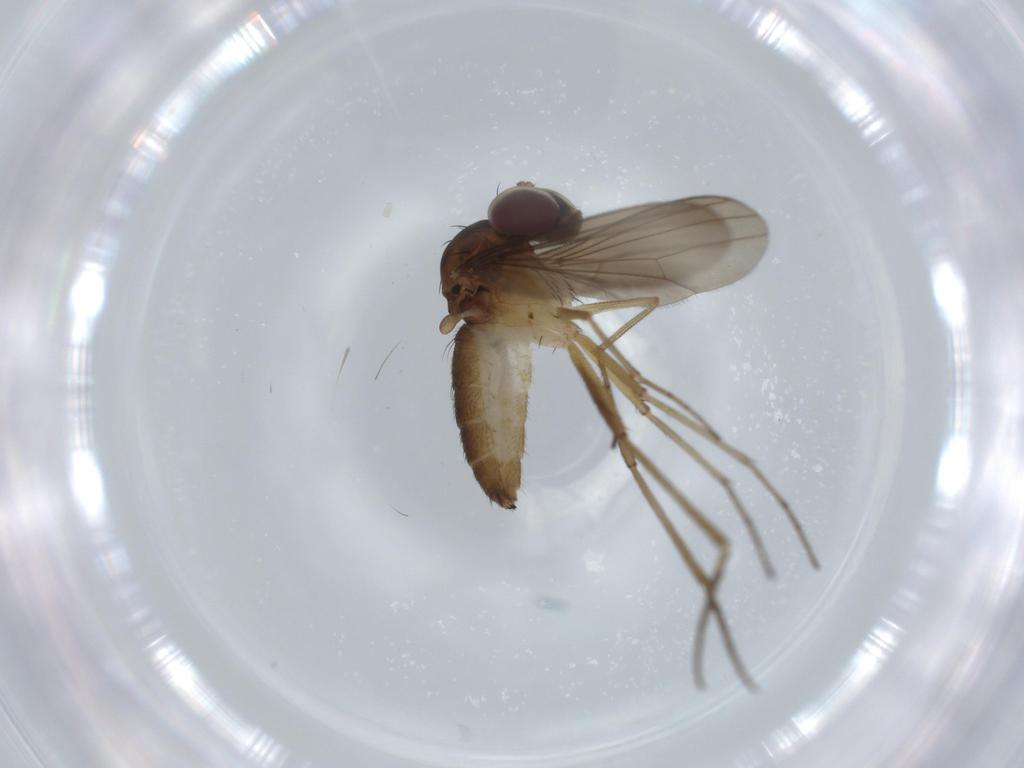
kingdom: Animalia
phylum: Arthropoda
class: Insecta
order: Diptera
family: Dolichopodidae
